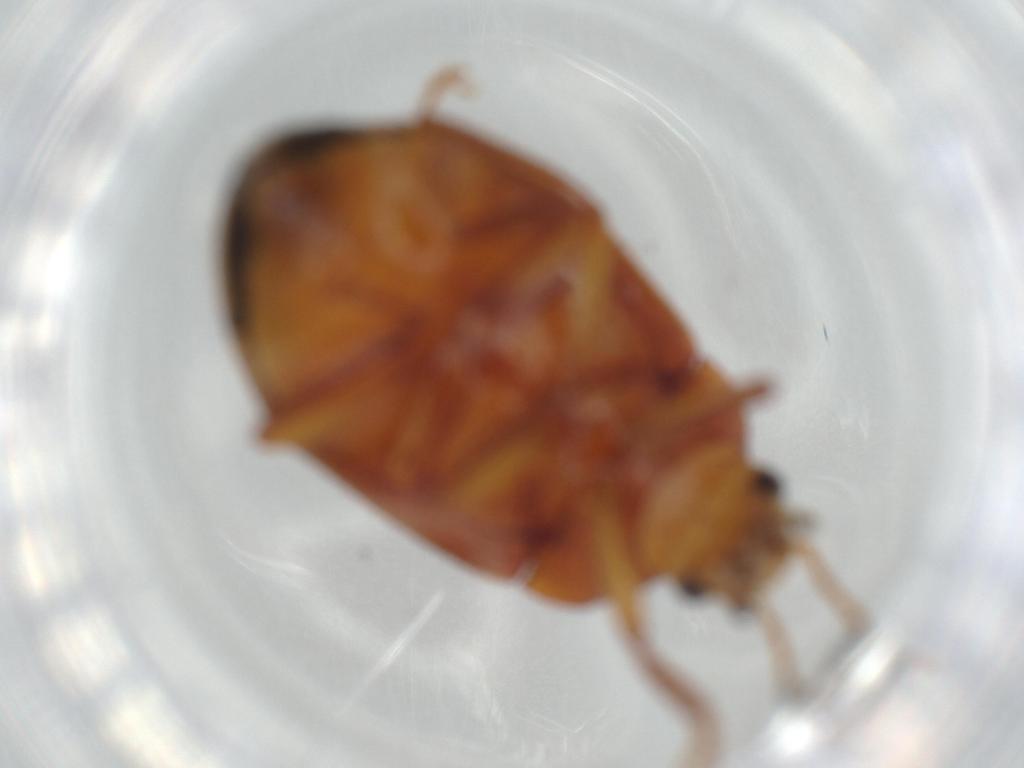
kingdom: Animalia
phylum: Arthropoda
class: Insecta
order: Coleoptera
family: Ptilodactylidae
